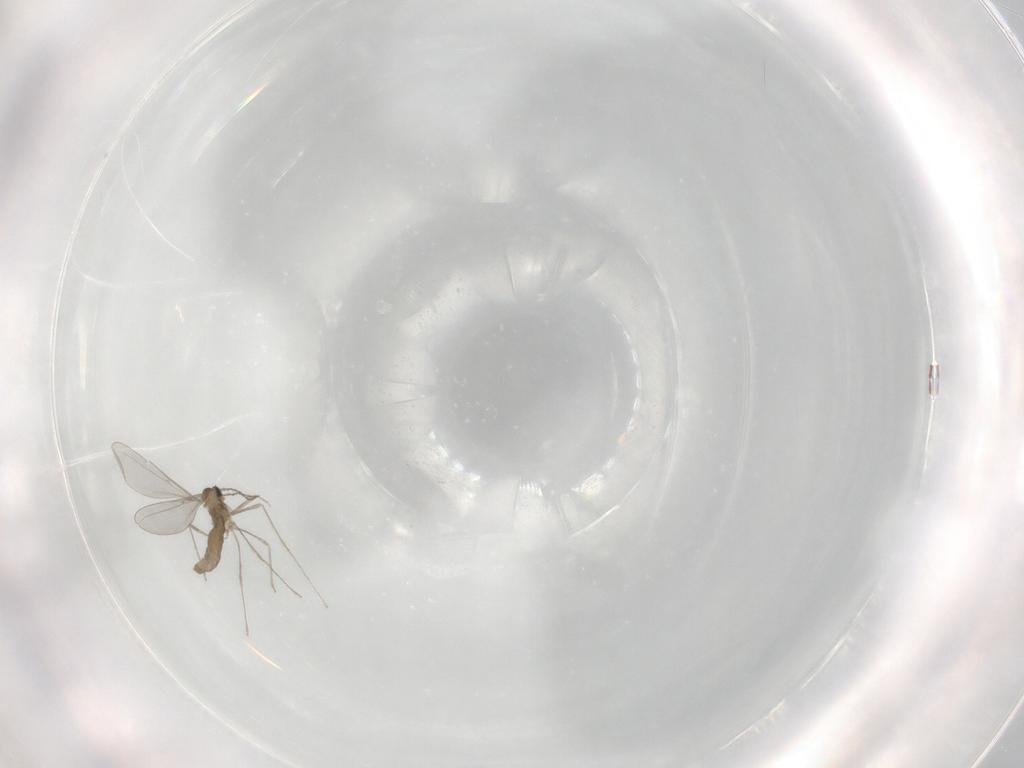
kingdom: Animalia
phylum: Arthropoda
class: Insecta
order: Diptera
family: Cecidomyiidae
